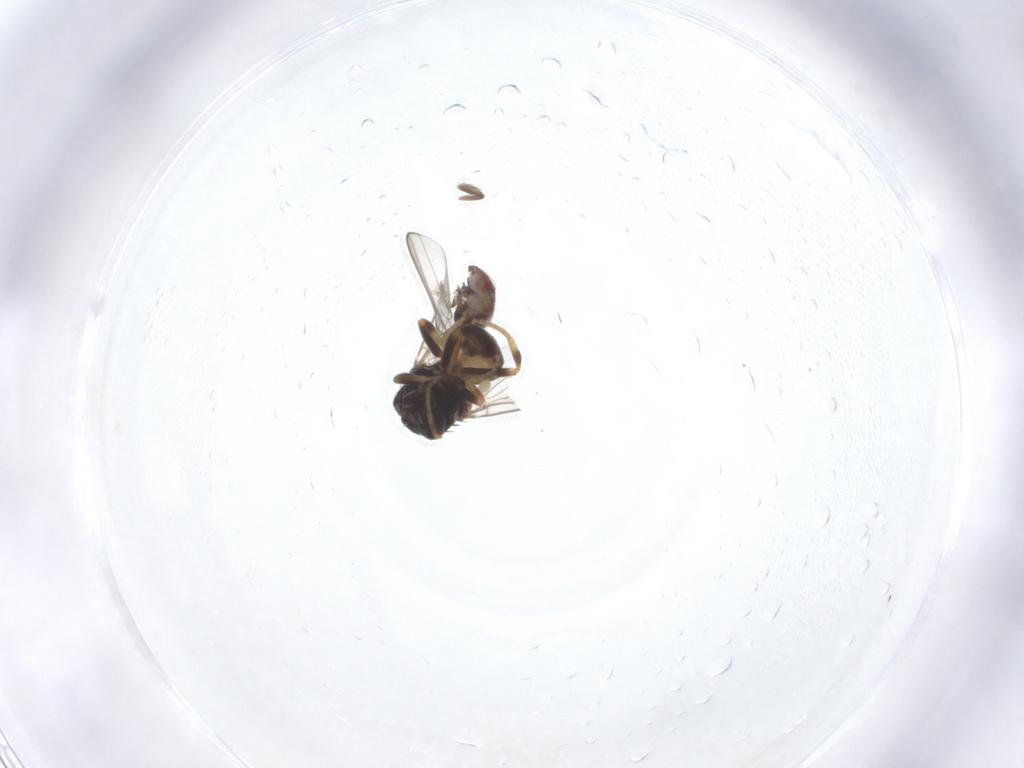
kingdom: Animalia
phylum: Arthropoda
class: Insecta
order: Diptera
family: Chloropidae
